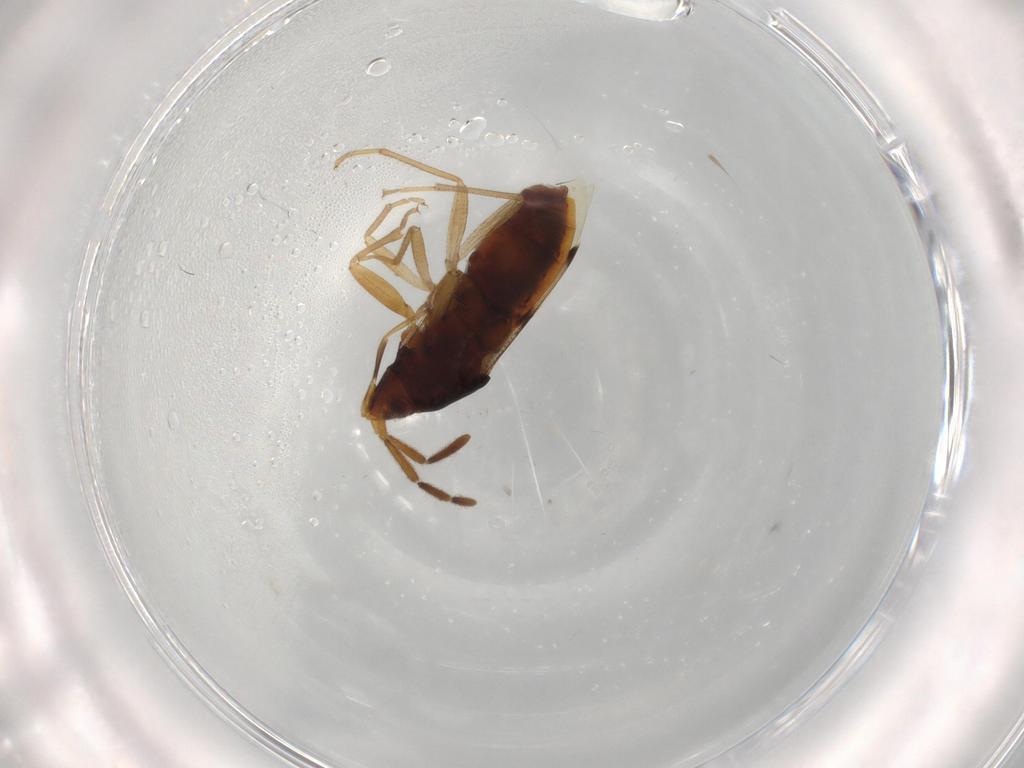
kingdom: Animalia
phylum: Arthropoda
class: Insecta
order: Hemiptera
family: Rhyparochromidae
